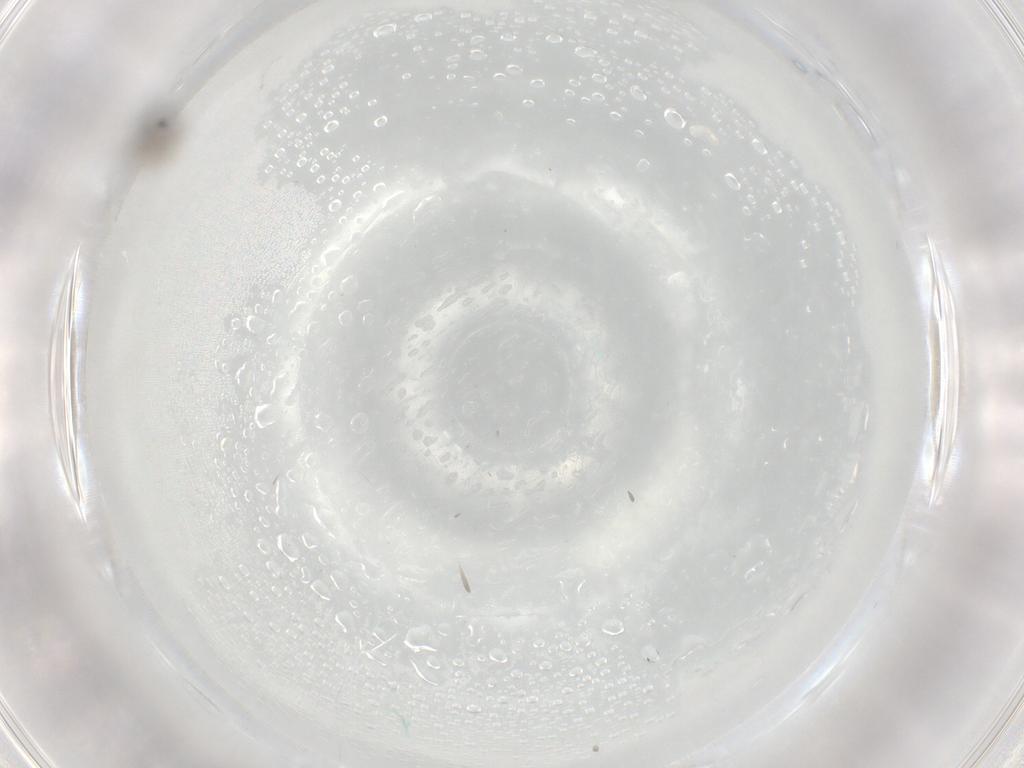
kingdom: Animalia
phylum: Arthropoda
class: Insecta
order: Diptera
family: Cecidomyiidae
